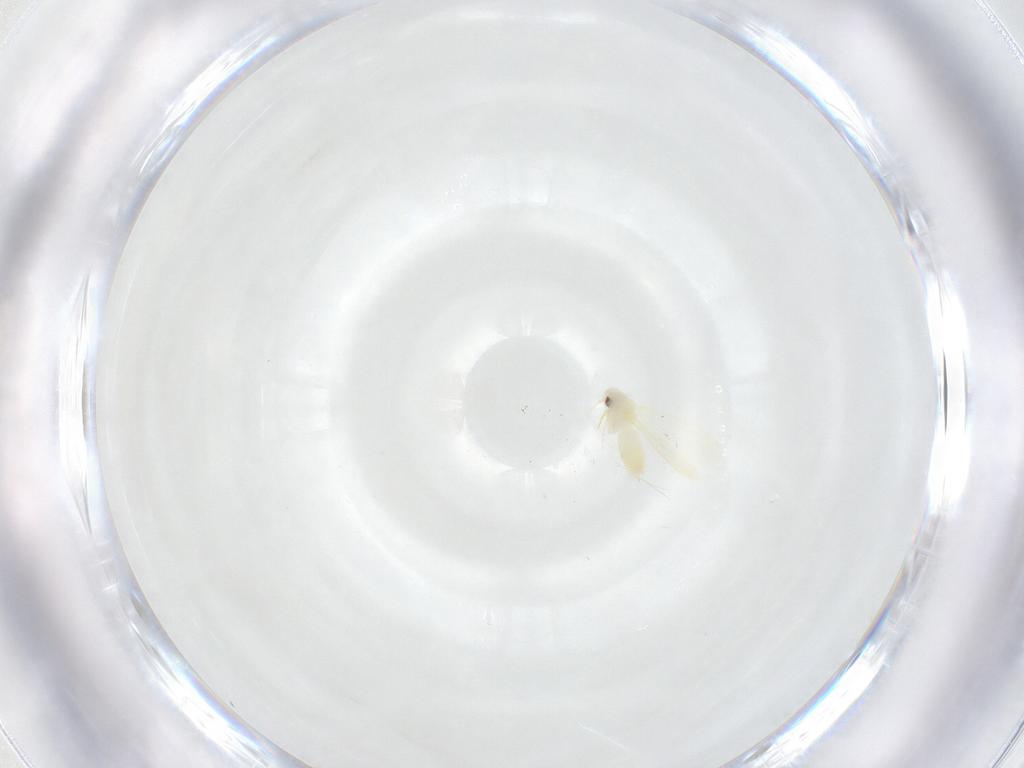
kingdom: Animalia
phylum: Arthropoda
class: Insecta
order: Hemiptera
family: Aleyrodidae
